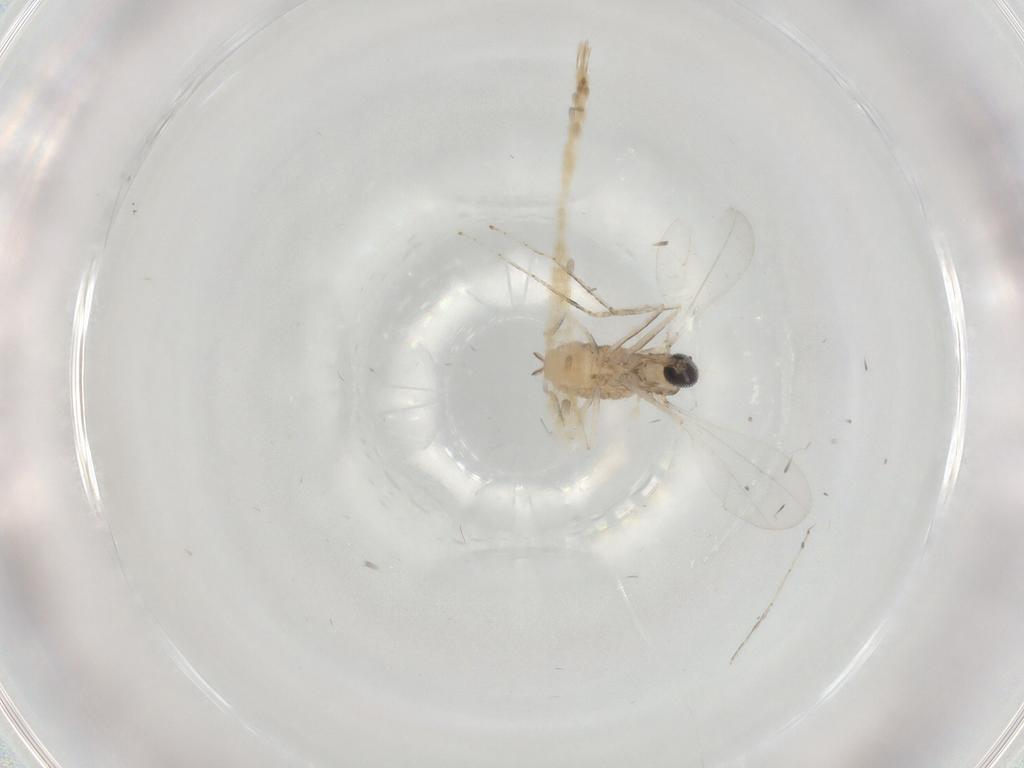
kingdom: Animalia
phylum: Arthropoda
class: Insecta
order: Diptera
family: Cecidomyiidae
